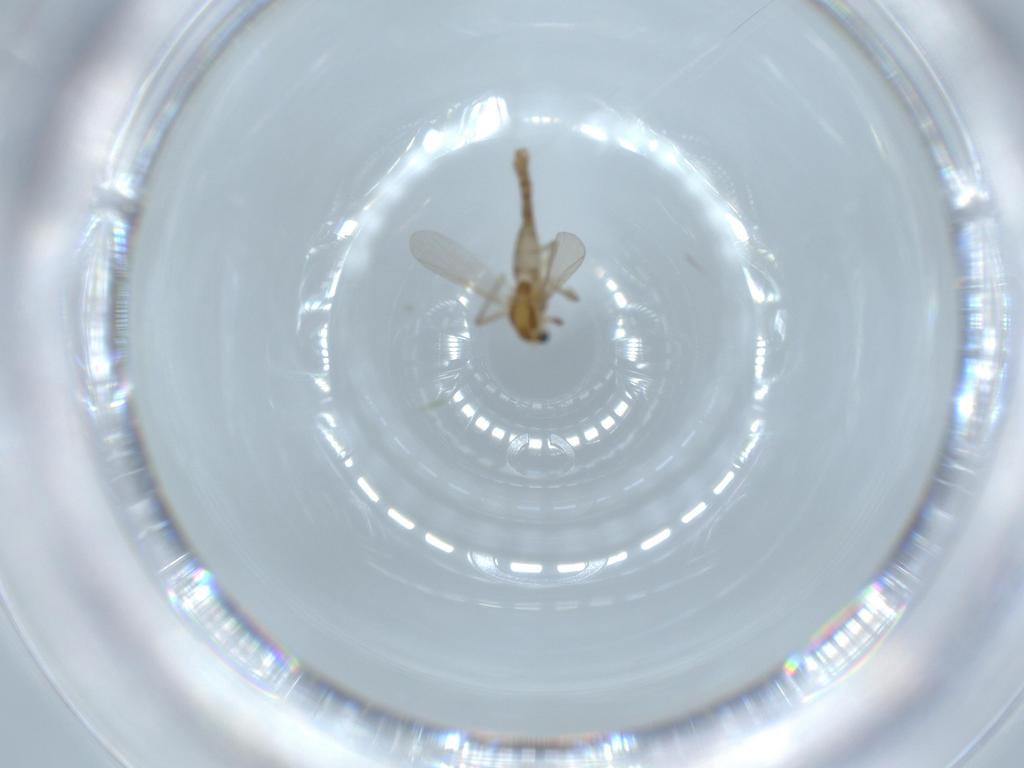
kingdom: Animalia
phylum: Arthropoda
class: Insecta
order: Diptera
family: Chironomidae
